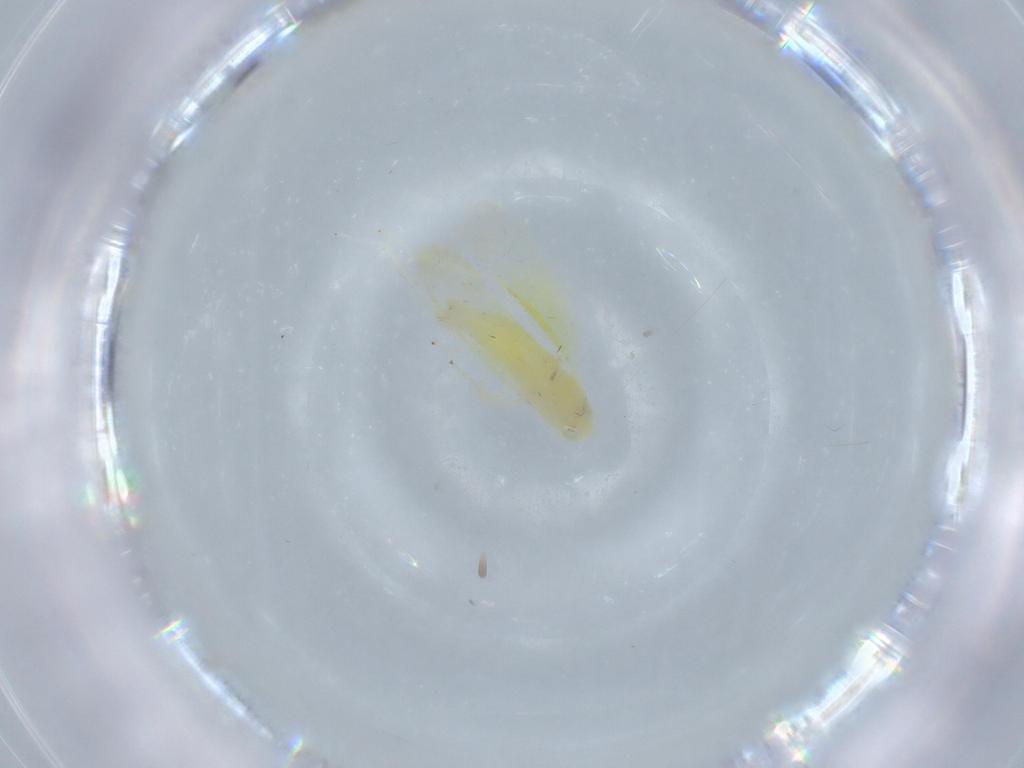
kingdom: Animalia
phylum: Arthropoda
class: Insecta
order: Hemiptera
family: Cicadellidae
